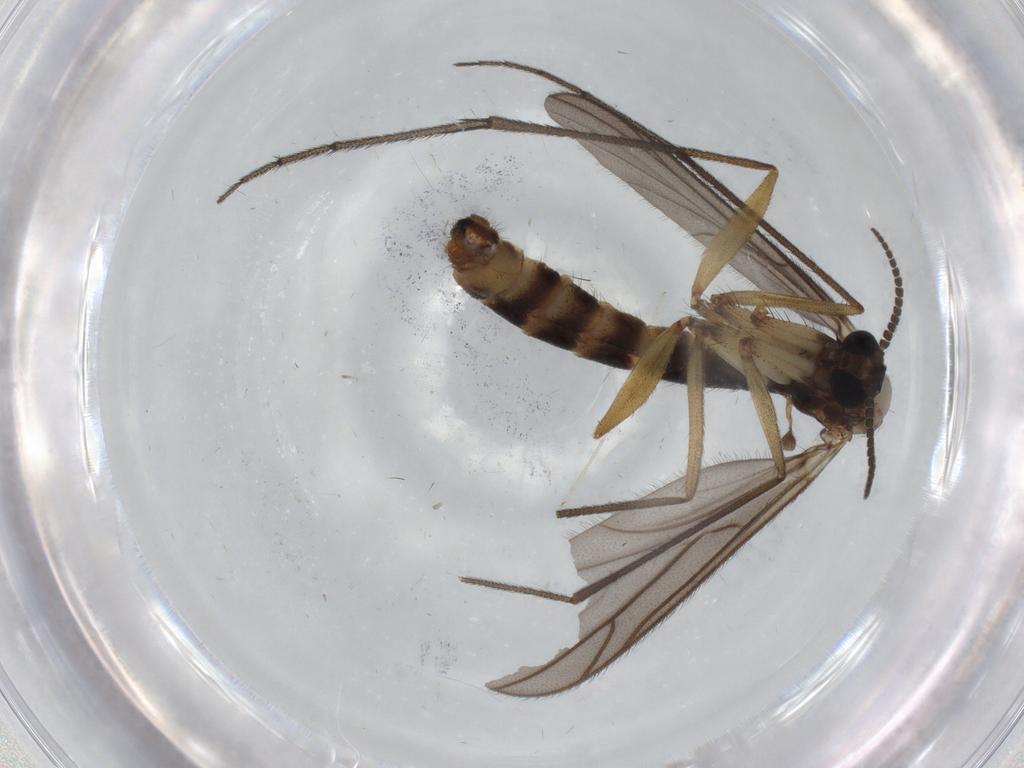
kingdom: Animalia
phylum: Arthropoda
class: Insecta
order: Diptera
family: Ditomyiidae
